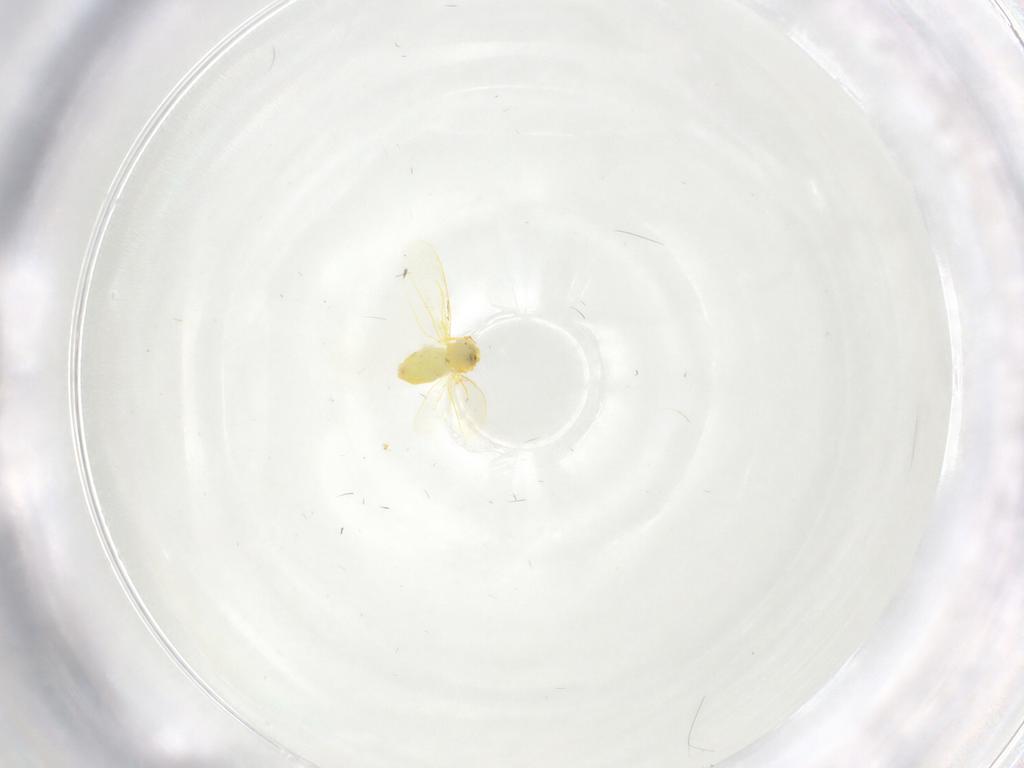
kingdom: Animalia
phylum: Arthropoda
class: Insecta
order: Hemiptera
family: Aleyrodidae
